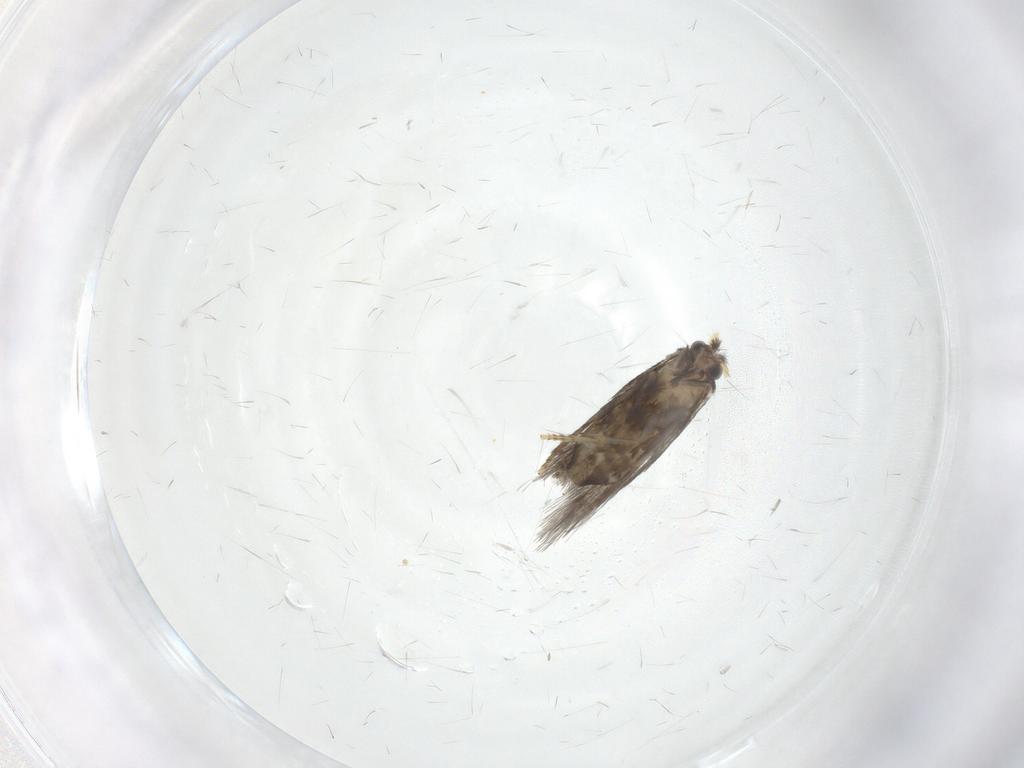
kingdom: Animalia
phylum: Arthropoda
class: Insecta
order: Lepidoptera
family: Nepticulidae
